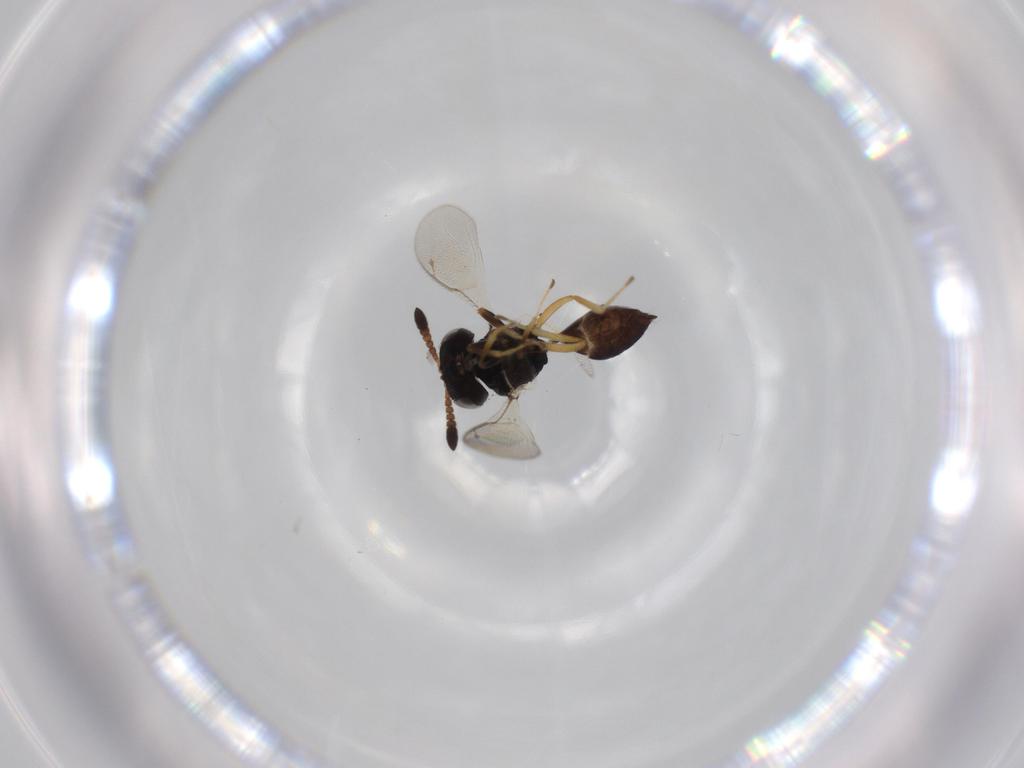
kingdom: Animalia
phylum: Arthropoda
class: Insecta
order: Hymenoptera
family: Pteromalidae
